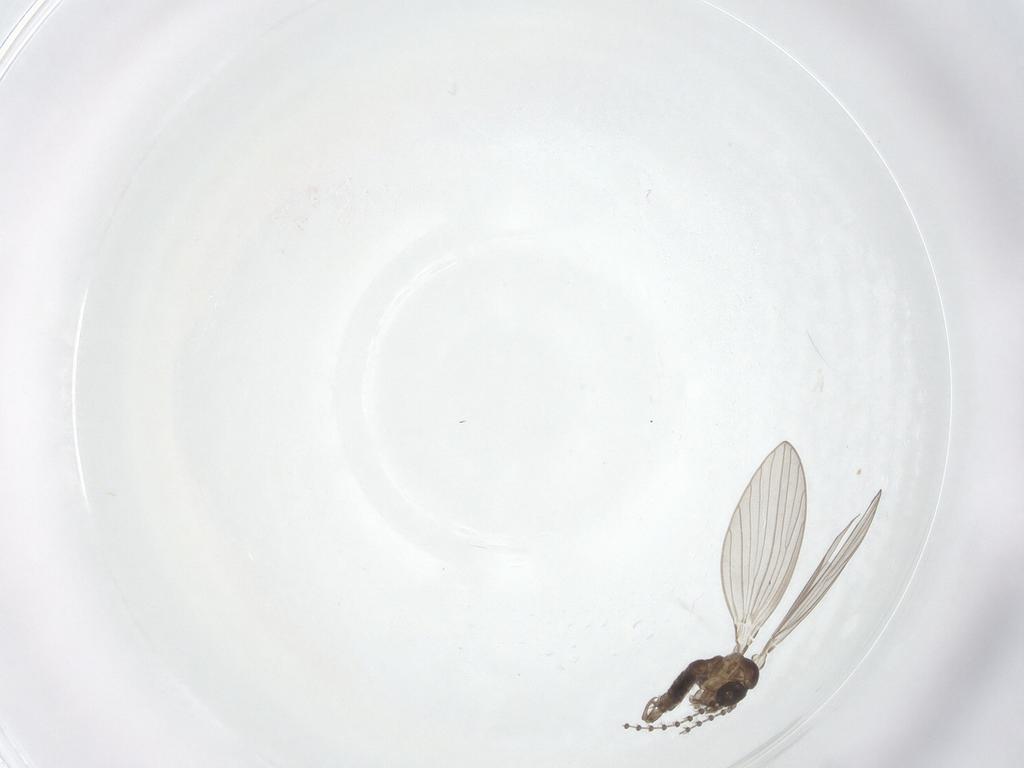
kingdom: Animalia
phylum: Arthropoda
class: Insecta
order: Diptera
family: Psychodidae
